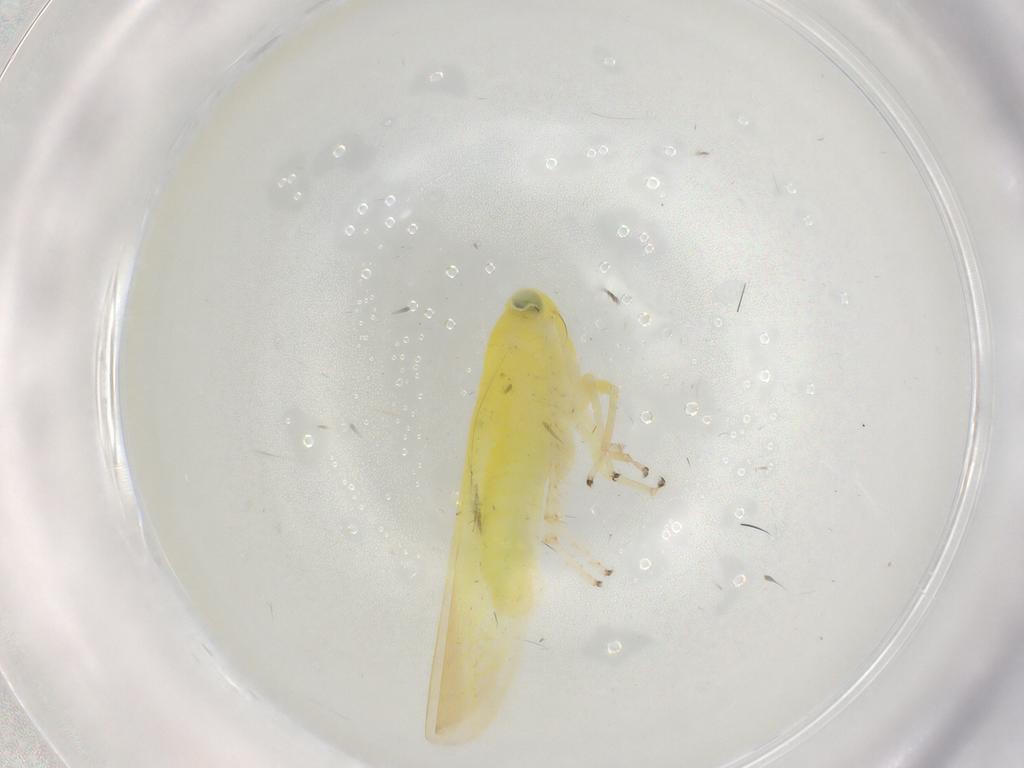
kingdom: Animalia
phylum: Arthropoda
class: Insecta
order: Hemiptera
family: Cicadellidae
